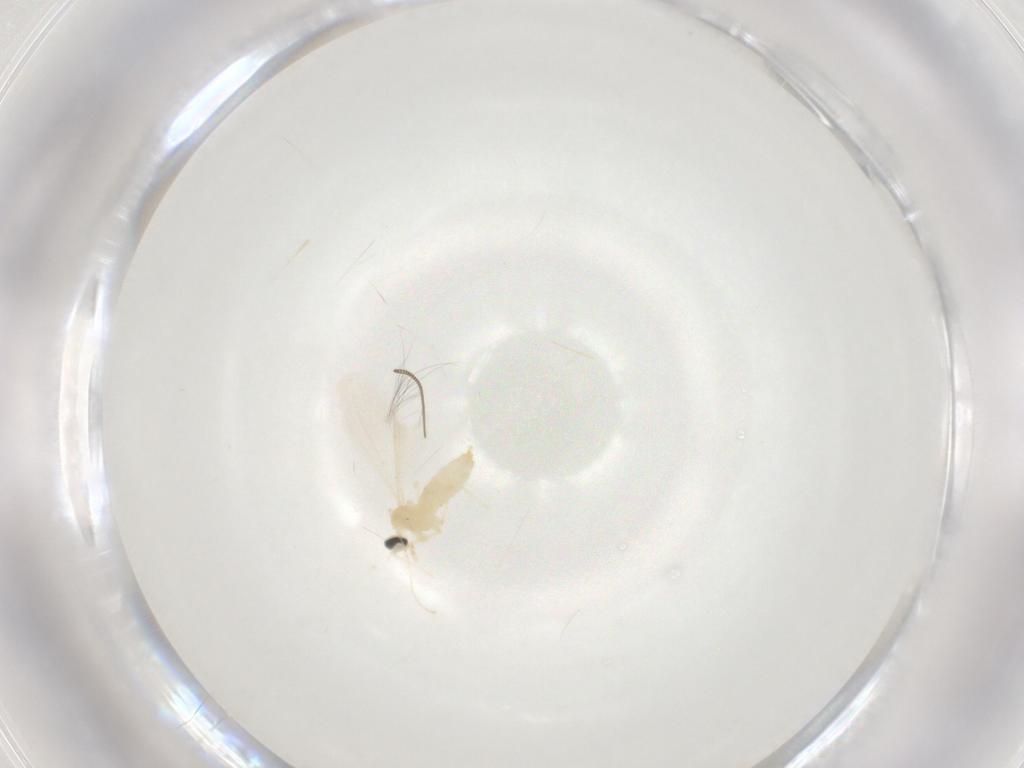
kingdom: Animalia
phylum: Arthropoda
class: Insecta
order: Diptera
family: Cecidomyiidae
